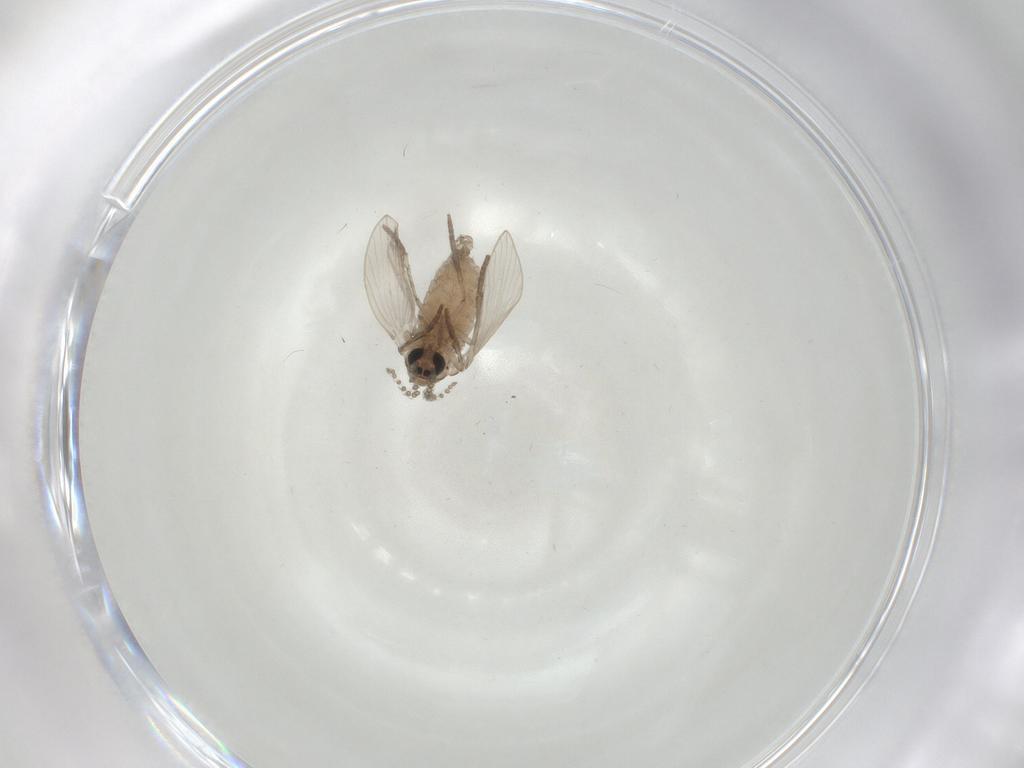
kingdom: Animalia
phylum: Arthropoda
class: Insecta
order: Diptera
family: Psychodidae
